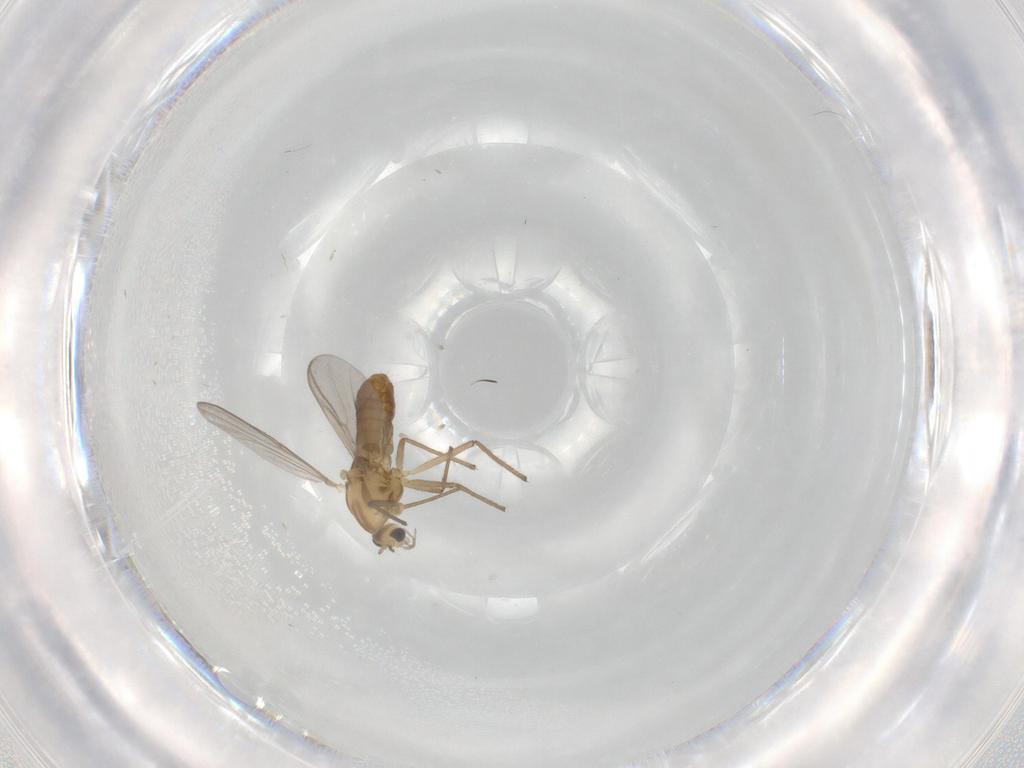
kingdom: Animalia
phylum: Arthropoda
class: Insecta
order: Diptera
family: Chironomidae
